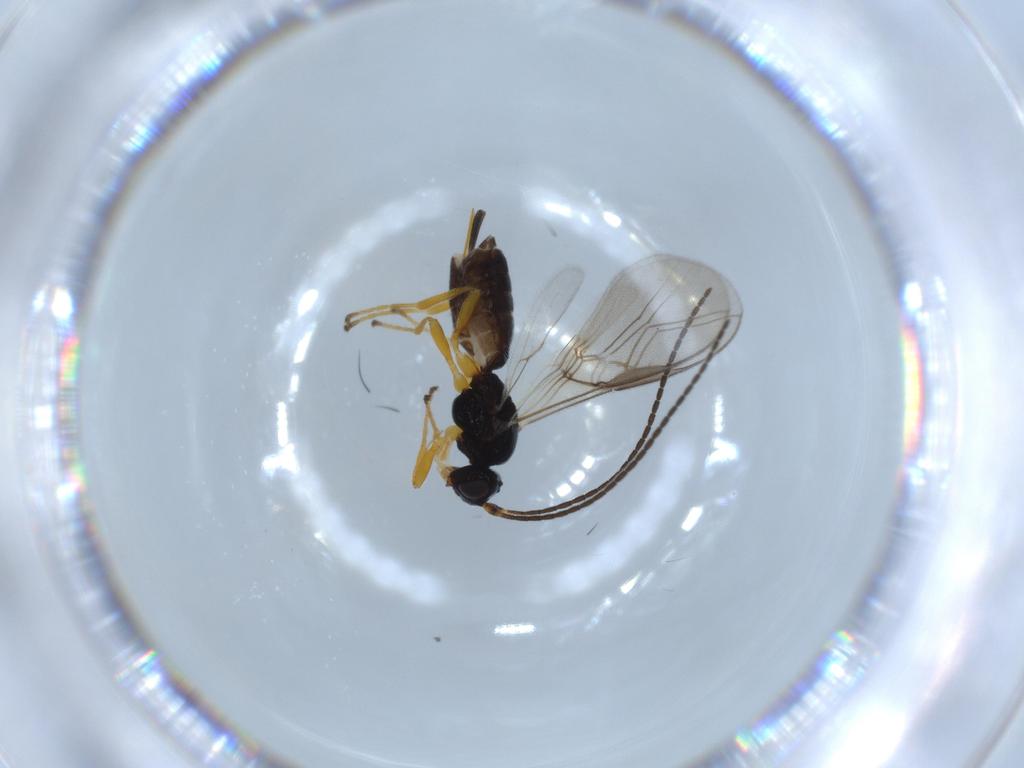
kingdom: Animalia
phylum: Arthropoda
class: Insecta
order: Hymenoptera
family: Braconidae
